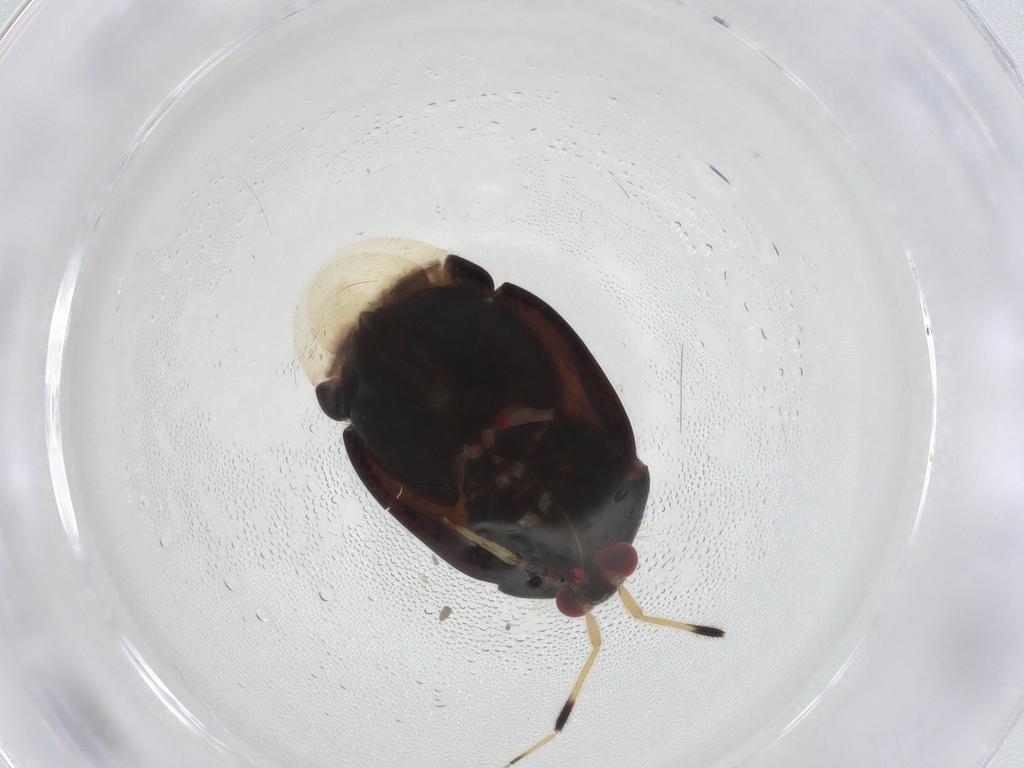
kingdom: Animalia
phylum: Arthropoda
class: Insecta
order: Hemiptera
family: Miridae
